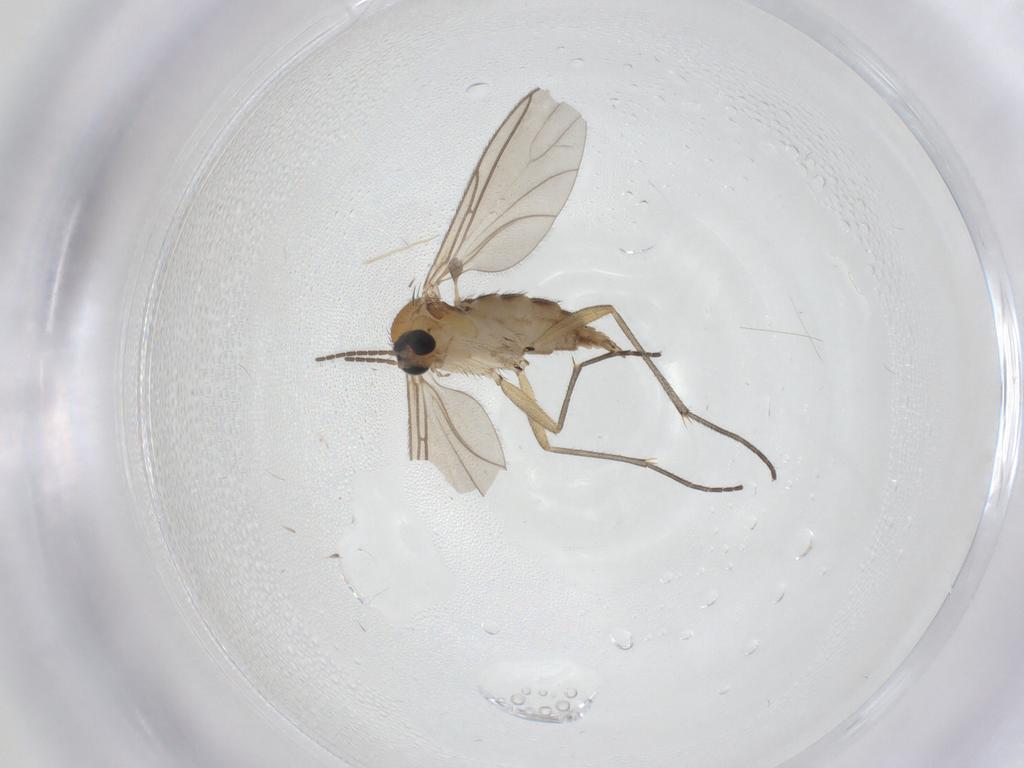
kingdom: Animalia
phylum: Arthropoda
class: Insecta
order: Diptera
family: Sciaridae
